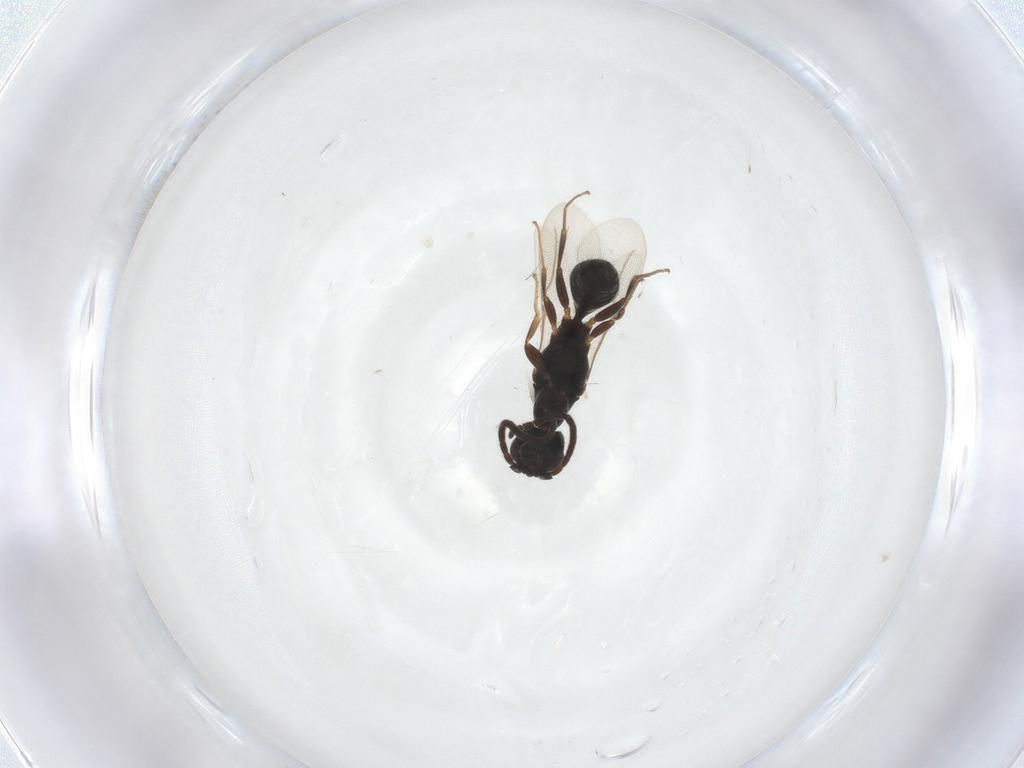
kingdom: Animalia
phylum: Arthropoda
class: Insecta
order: Hymenoptera
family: Bethylidae
